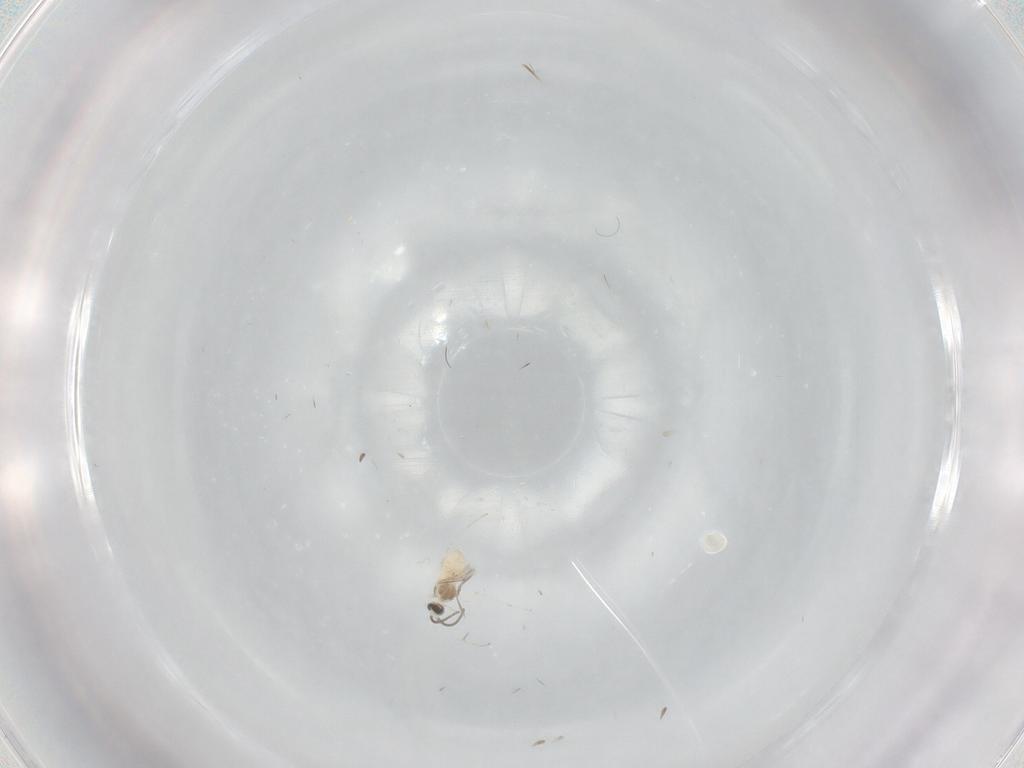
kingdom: Animalia
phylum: Arthropoda
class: Insecta
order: Diptera
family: Cecidomyiidae
